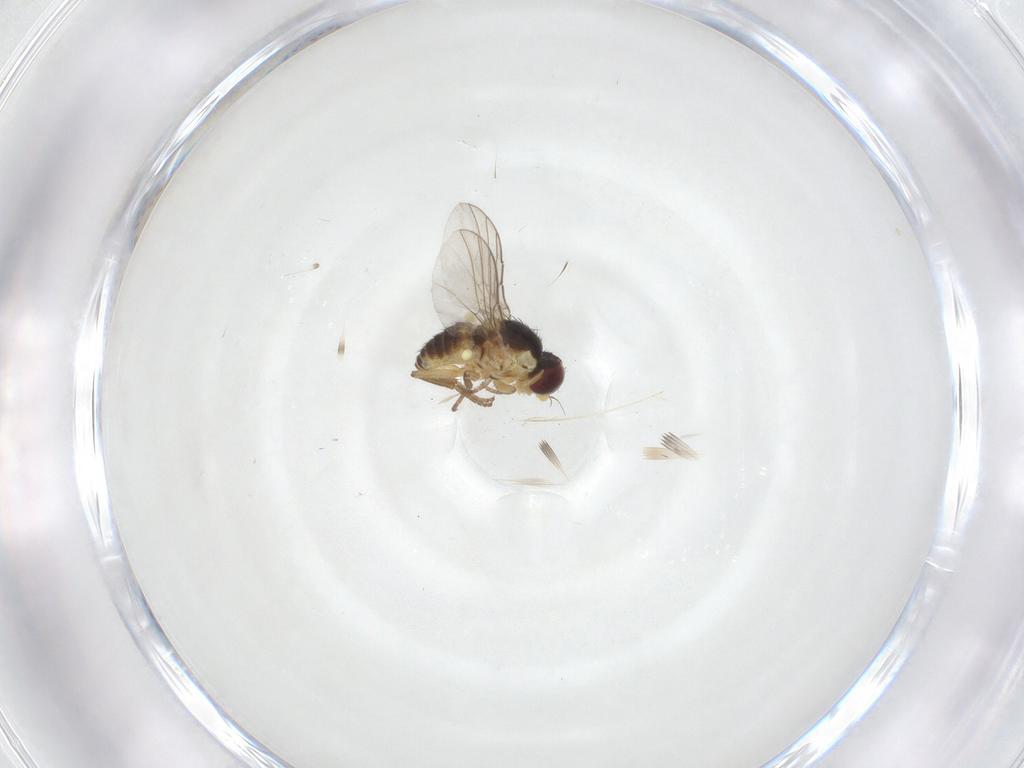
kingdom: Animalia
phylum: Arthropoda
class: Insecta
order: Diptera
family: Agromyzidae
